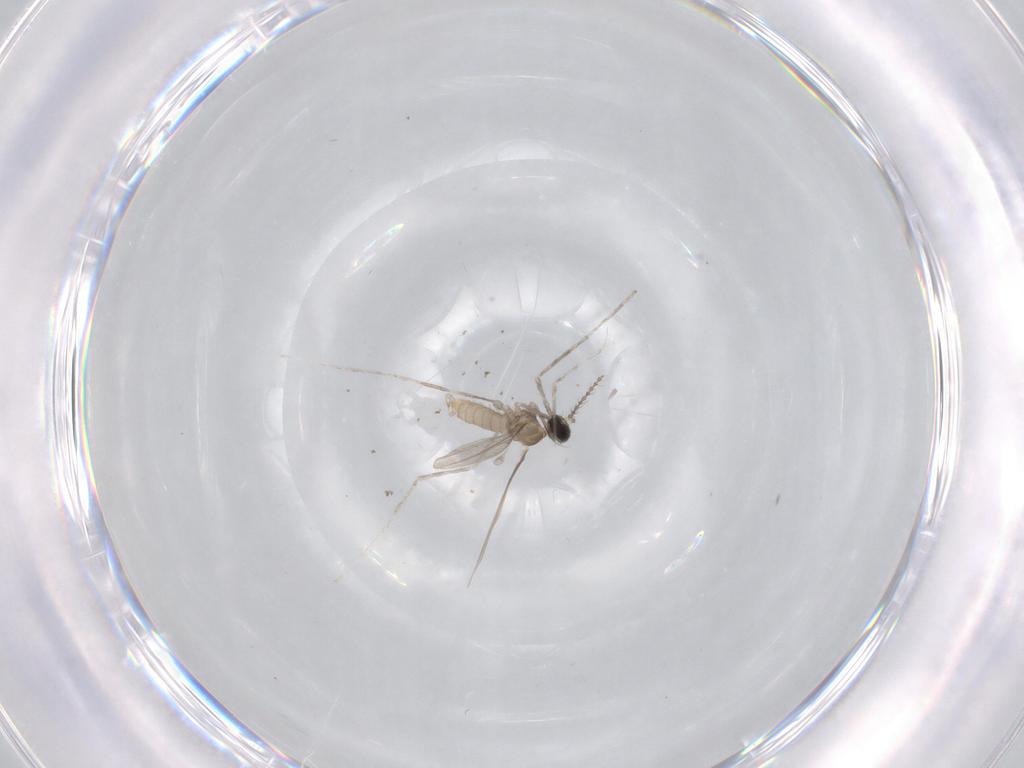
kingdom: Animalia
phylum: Arthropoda
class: Insecta
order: Diptera
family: Cecidomyiidae
